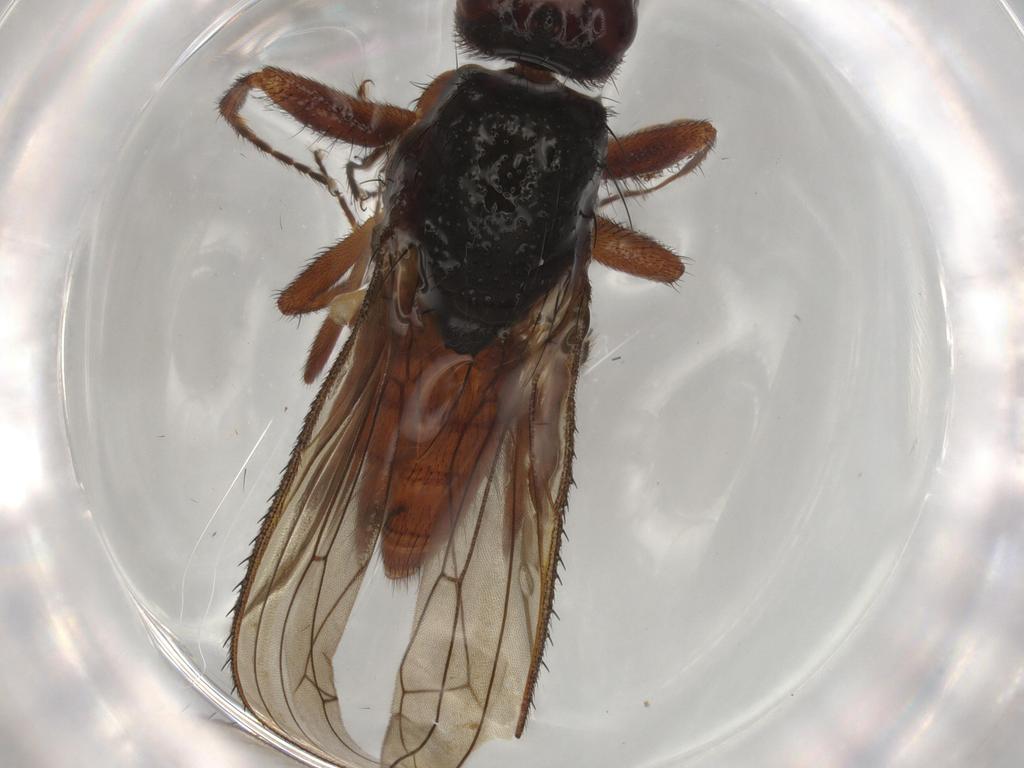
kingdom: Animalia
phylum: Arthropoda
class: Insecta
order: Diptera
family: Heleomyzidae
